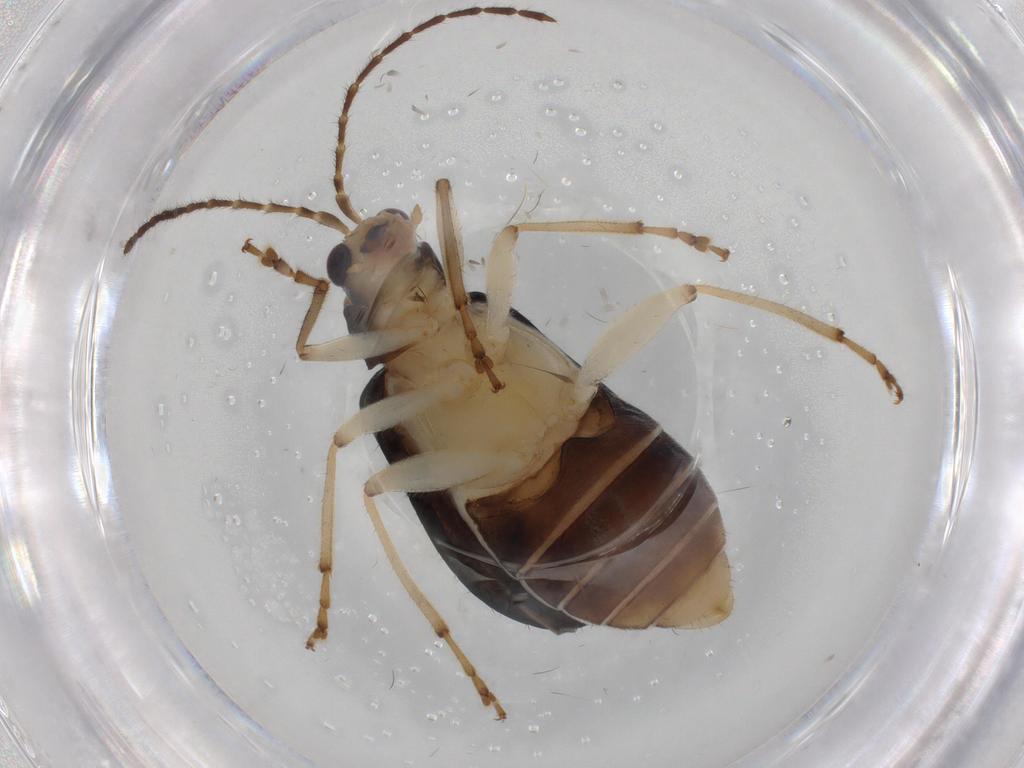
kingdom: Animalia
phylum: Arthropoda
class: Insecta
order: Coleoptera
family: Chrysomelidae
